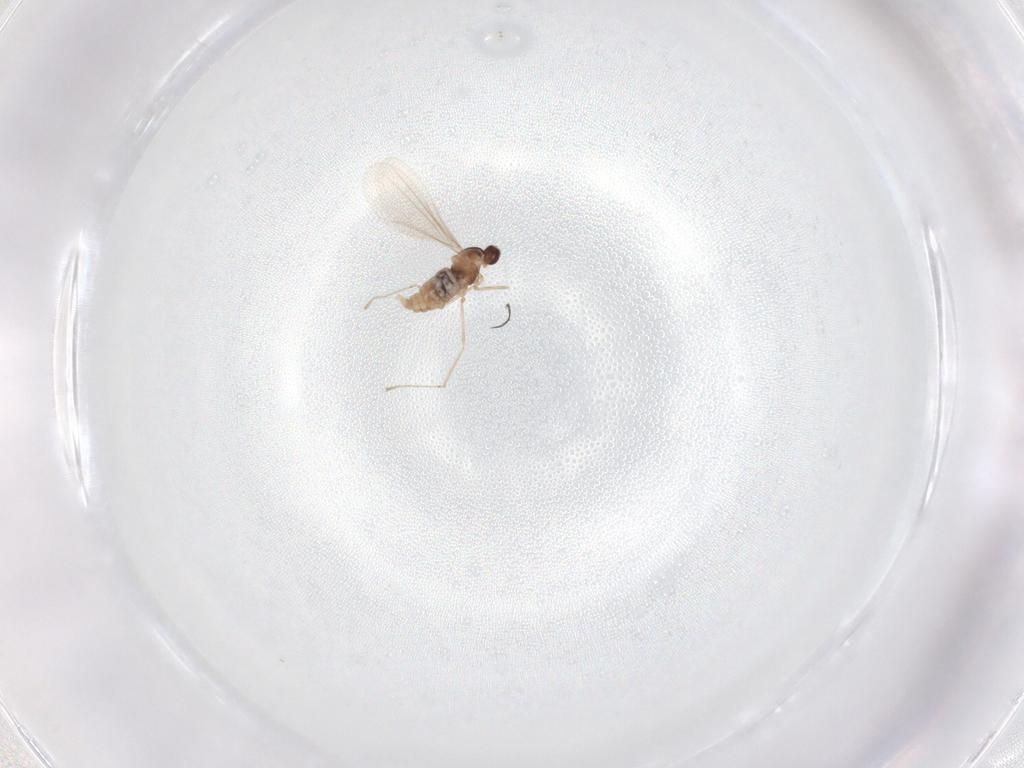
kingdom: Animalia
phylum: Arthropoda
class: Insecta
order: Diptera
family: Cecidomyiidae
